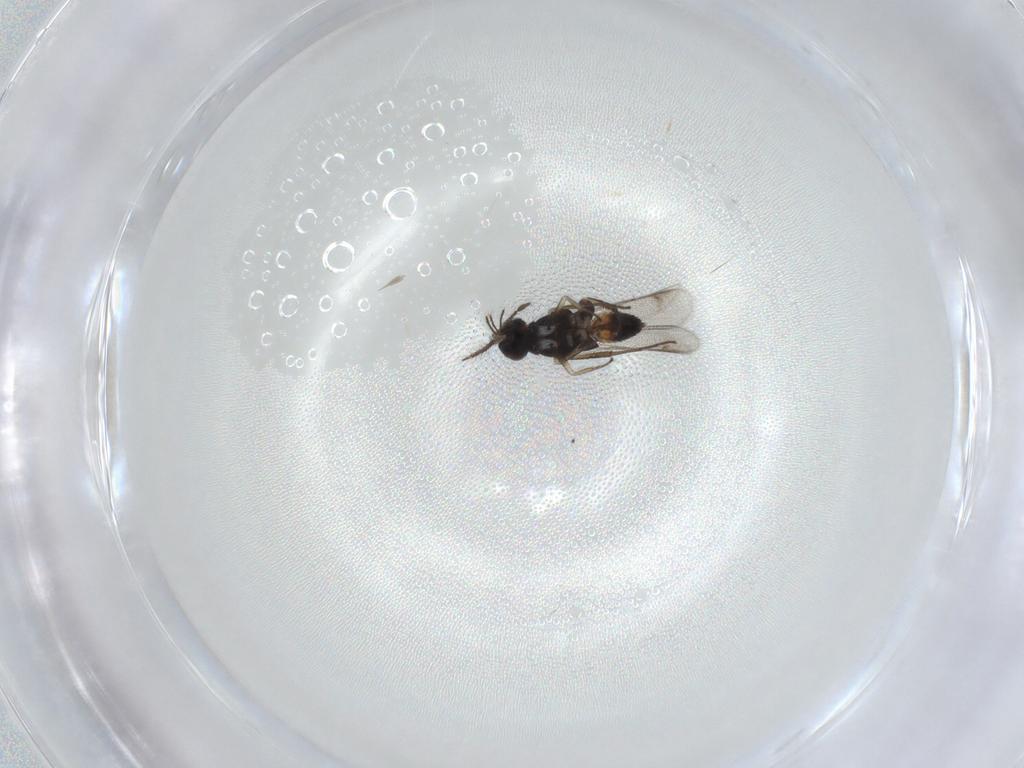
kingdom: Animalia
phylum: Arthropoda
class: Insecta
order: Hymenoptera
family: Eulophidae
